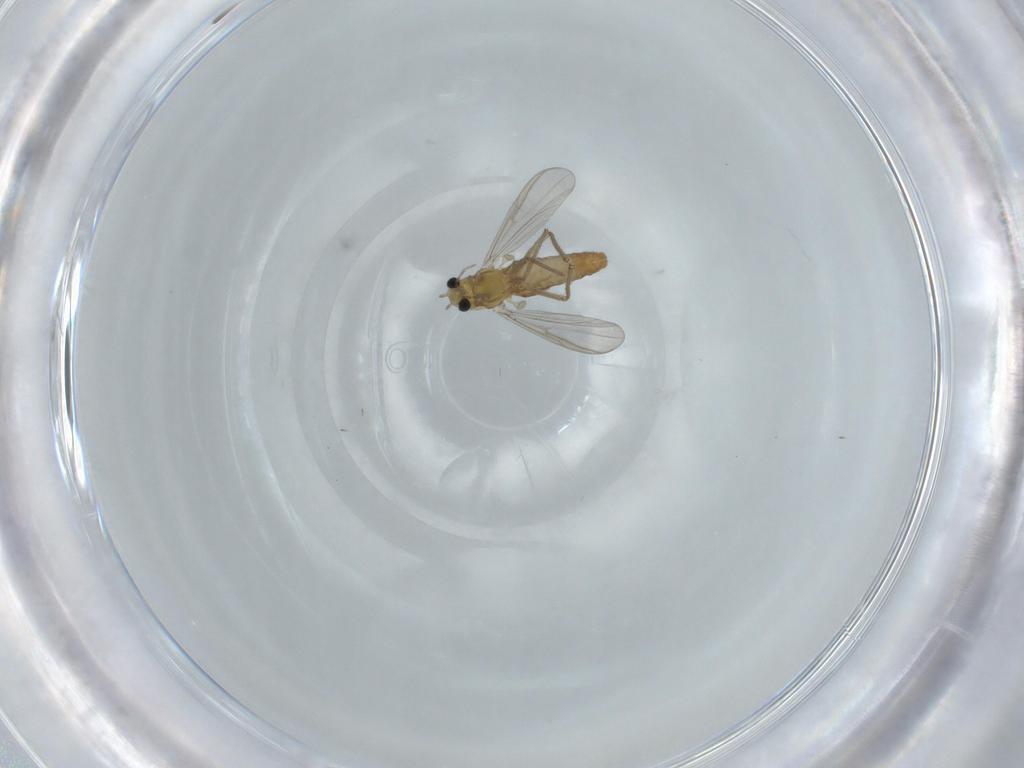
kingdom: Animalia
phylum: Arthropoda
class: Insecta
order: Diptera
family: Chironomidae
